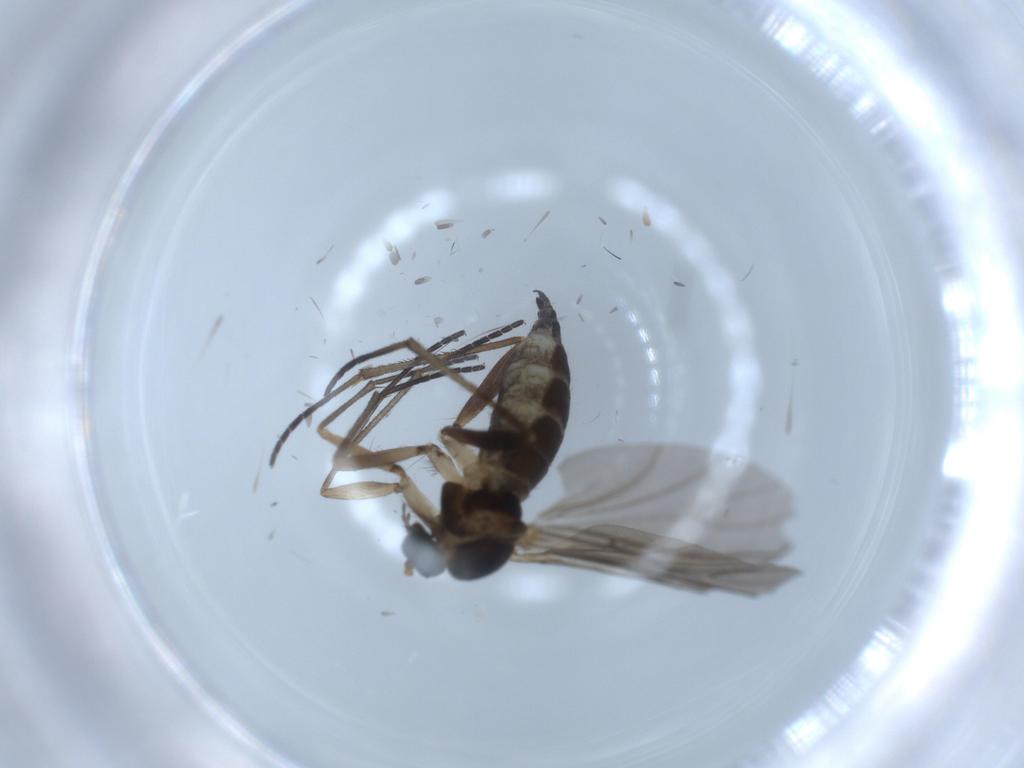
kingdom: Animalia
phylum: Arthropoda
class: Insecta
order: Diptera
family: Sciaridae
